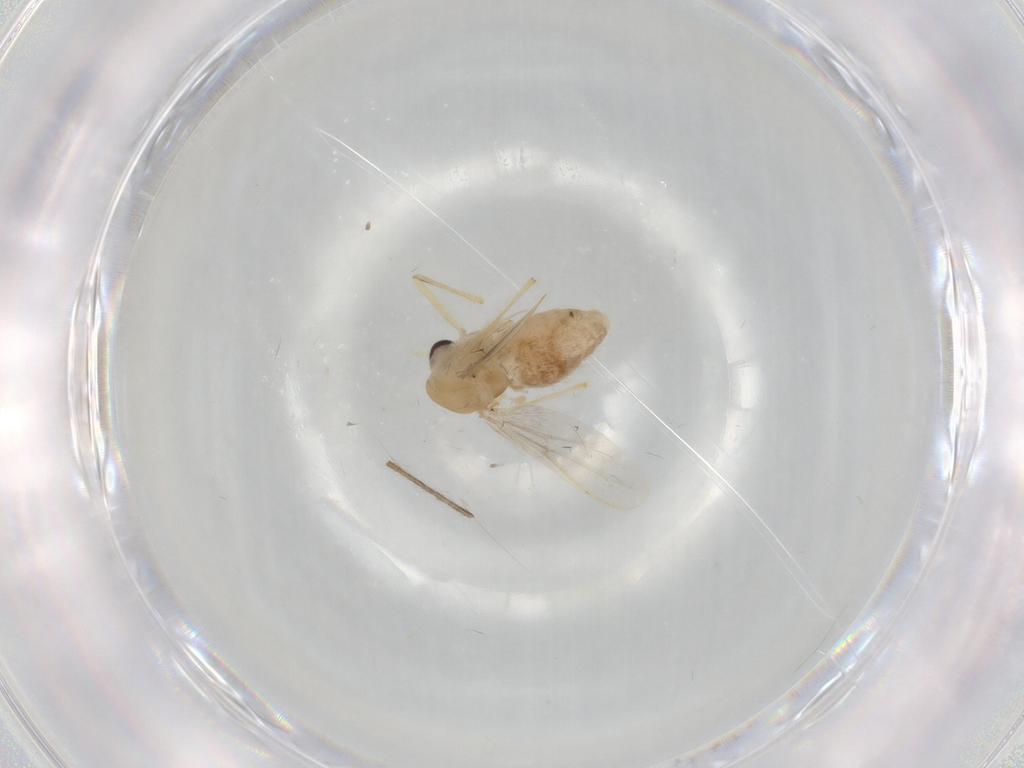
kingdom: Animalia
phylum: Arthropoda
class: Insecta
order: Diptera
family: Chironomidae
